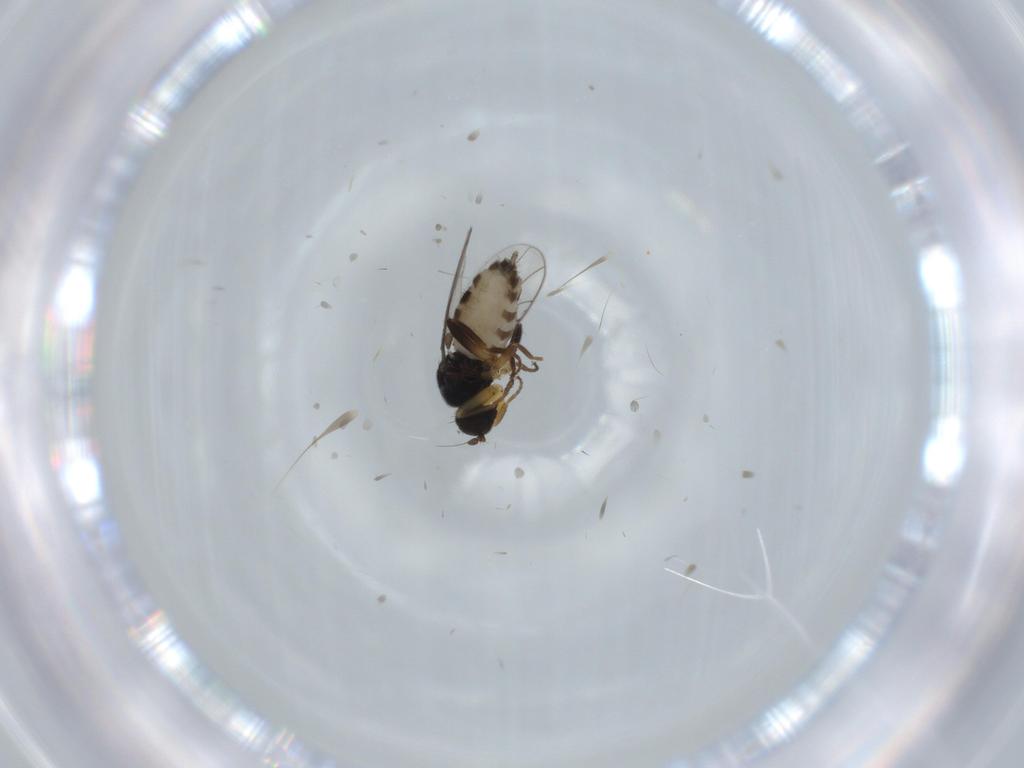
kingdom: Animalia
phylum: Arthropoda
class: Insecta
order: Diptera
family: Hybotidae
